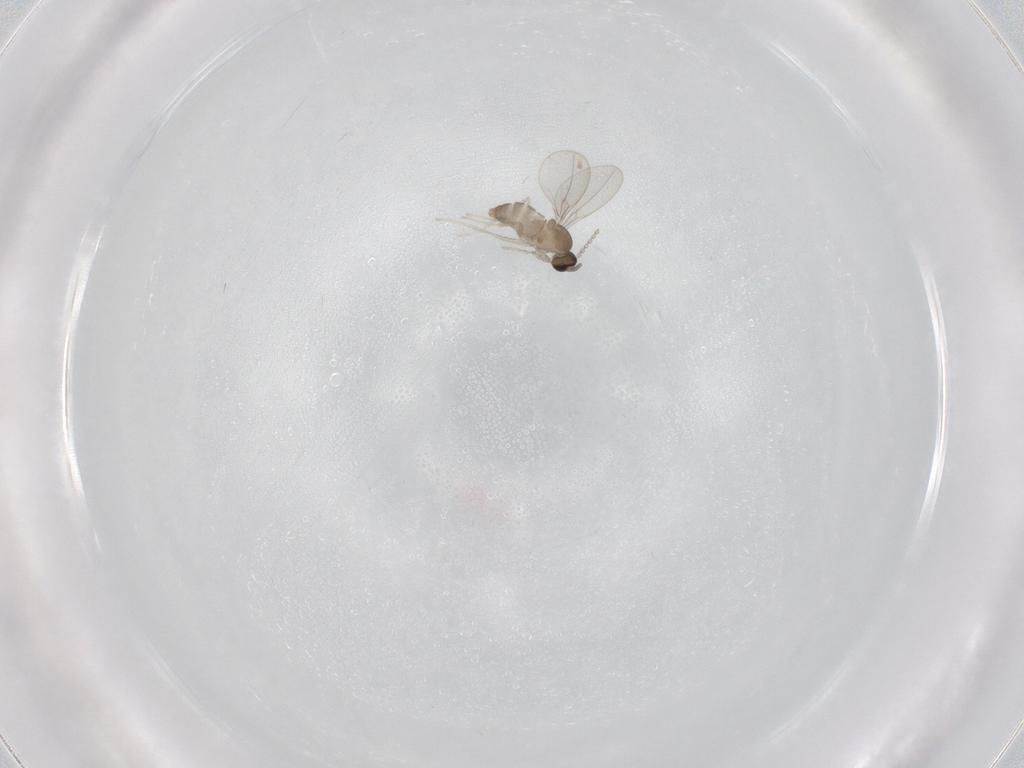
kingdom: Animalia
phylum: Arthropoda
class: Insecta
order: Diptera
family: Cecidomyiidae
